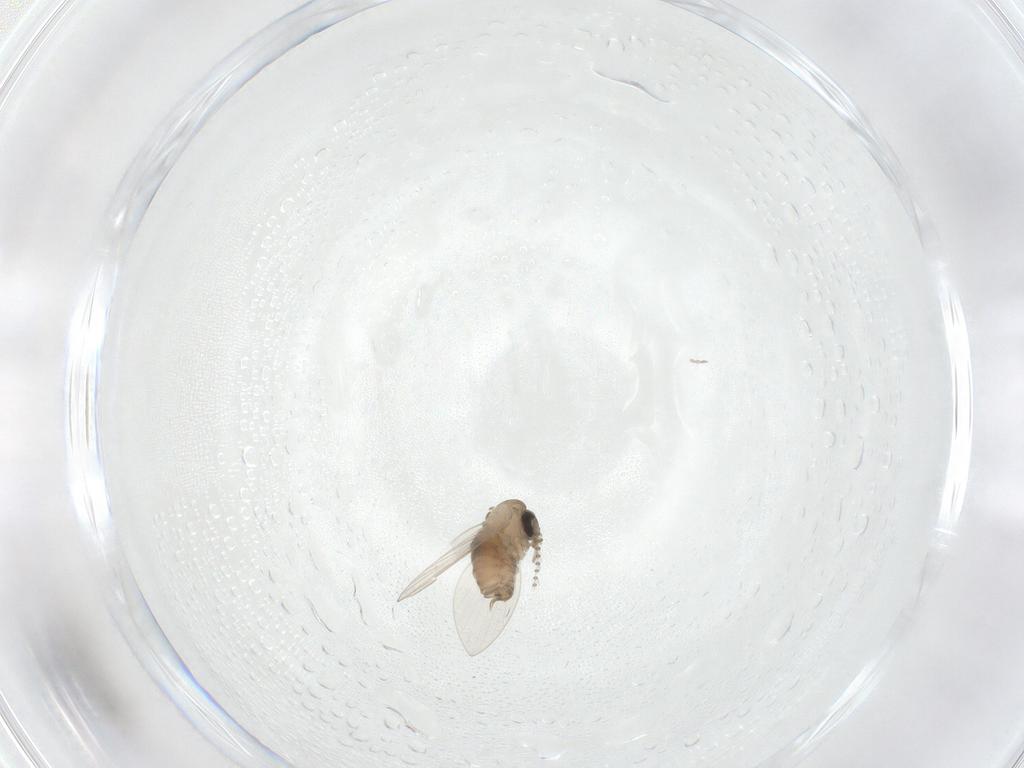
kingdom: Animalia
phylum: Arthropoda
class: Insecta
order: Diptera
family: Psychodidae
